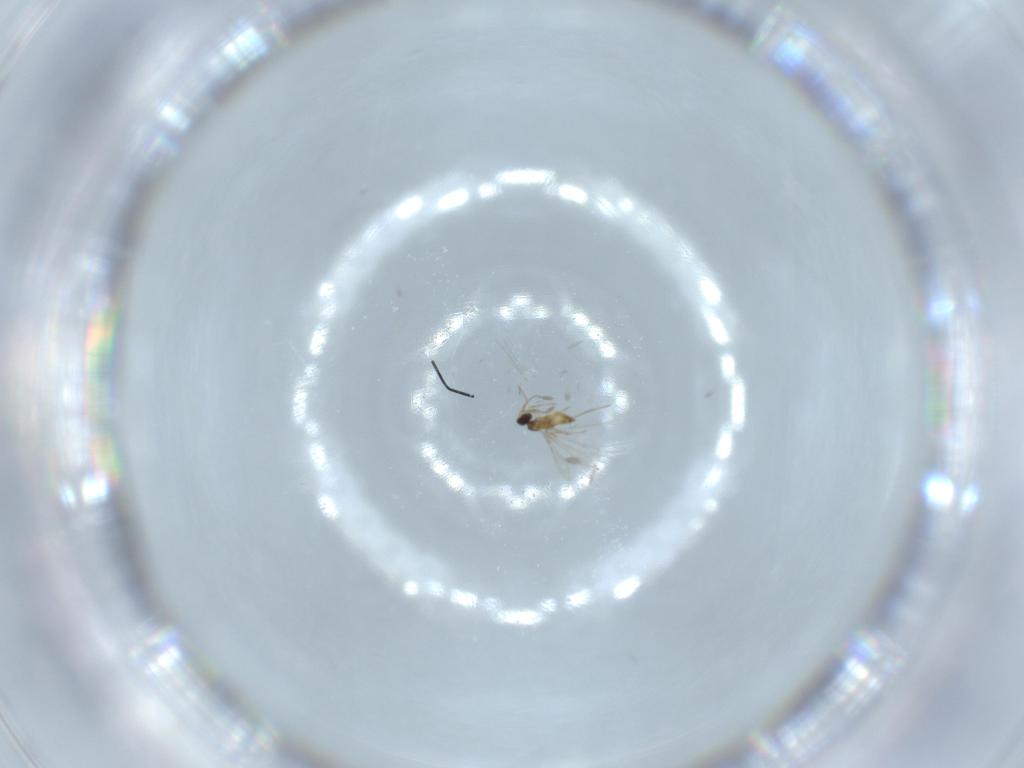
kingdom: Animalia
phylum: Arthropoda
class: Insecta
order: Hymenoptera
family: Mymaridae
